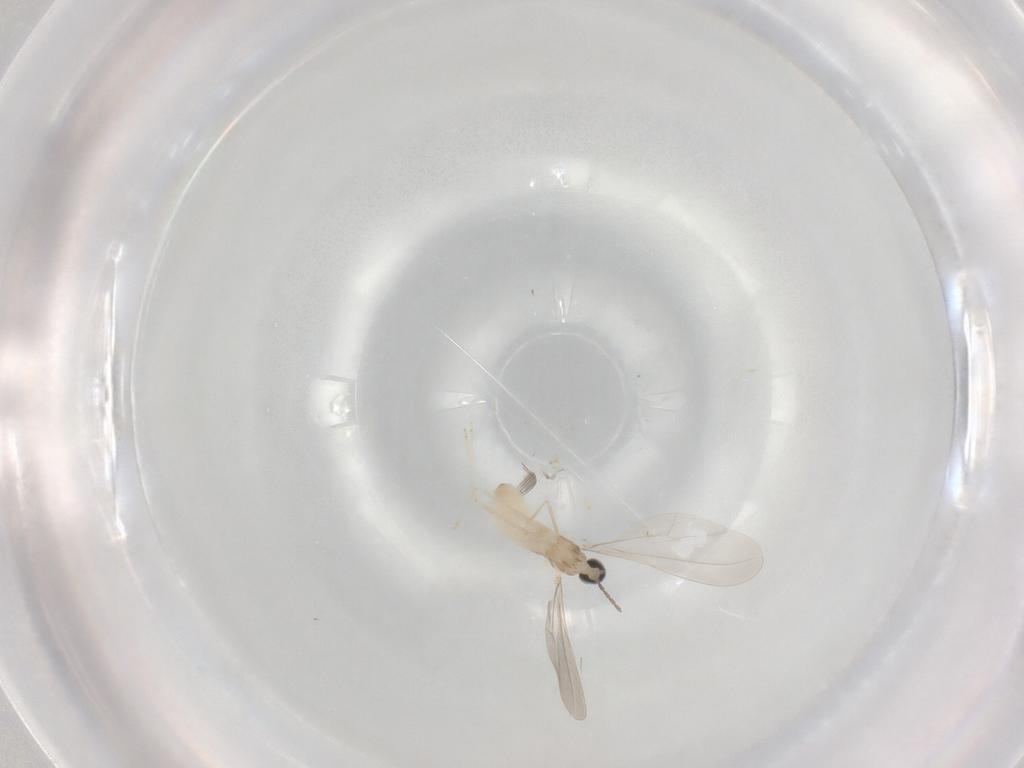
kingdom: Animalia
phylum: Arthropoda
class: Insecta
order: Diptera
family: Cecidomyiidae
